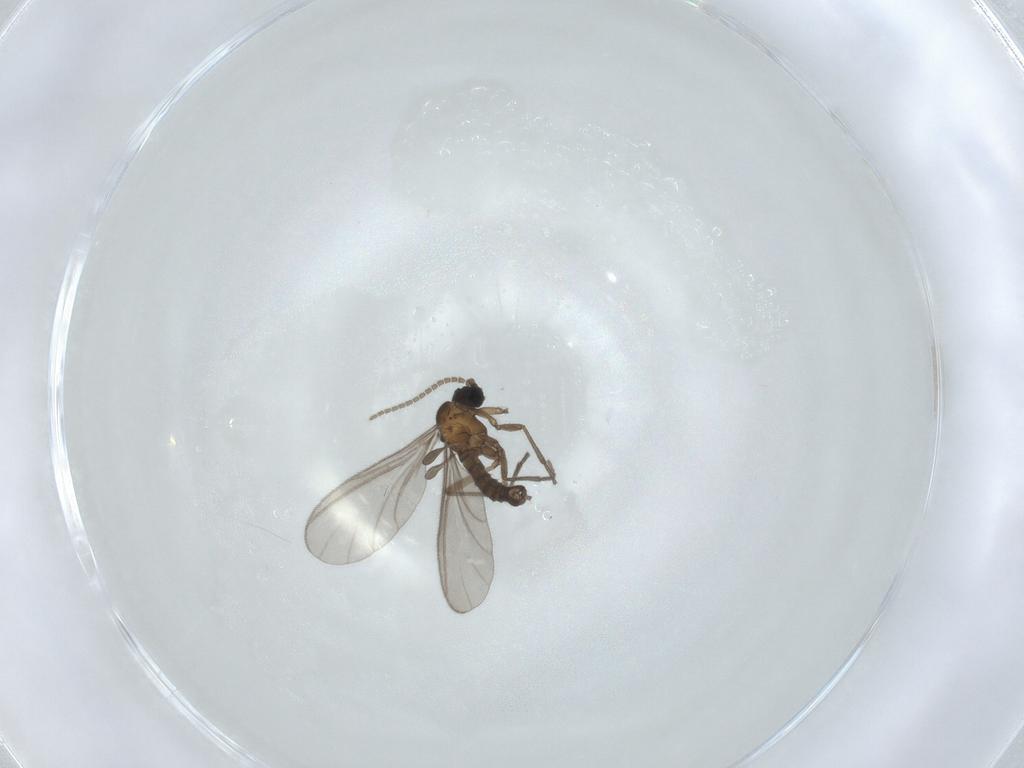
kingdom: Animalia
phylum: Arthropoda
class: Insecta
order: Diptera
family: Sciaridae
